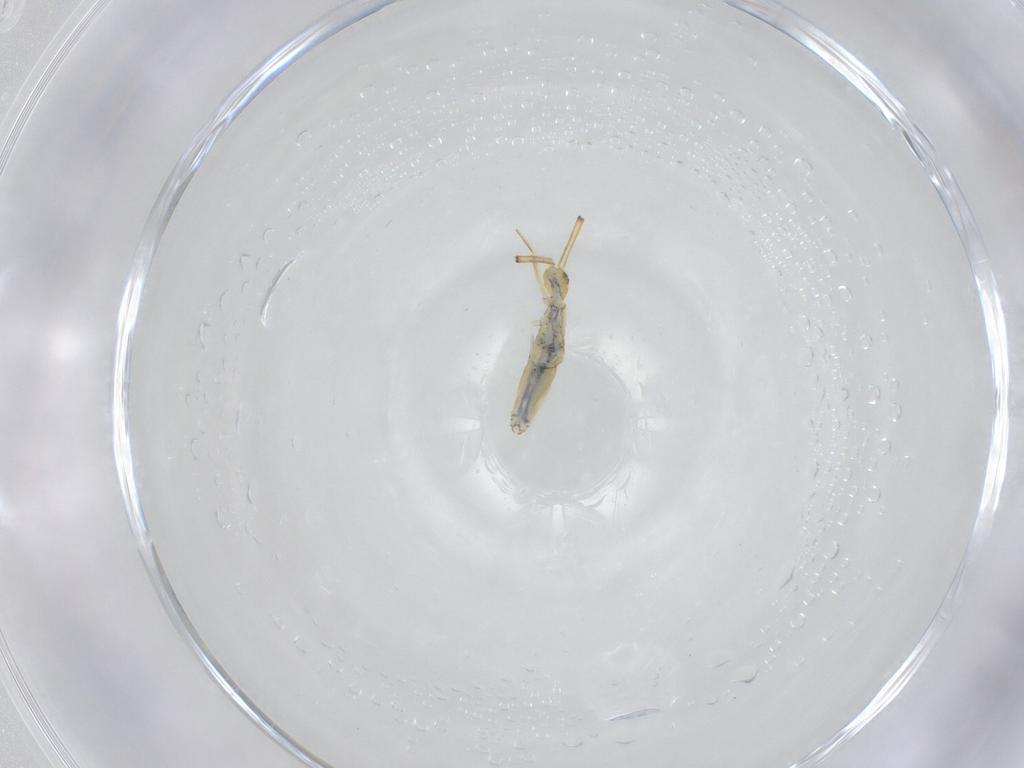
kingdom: Animalia
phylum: Arthropoda
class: Collembola
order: Entomobryomorpha
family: Paronellidae
